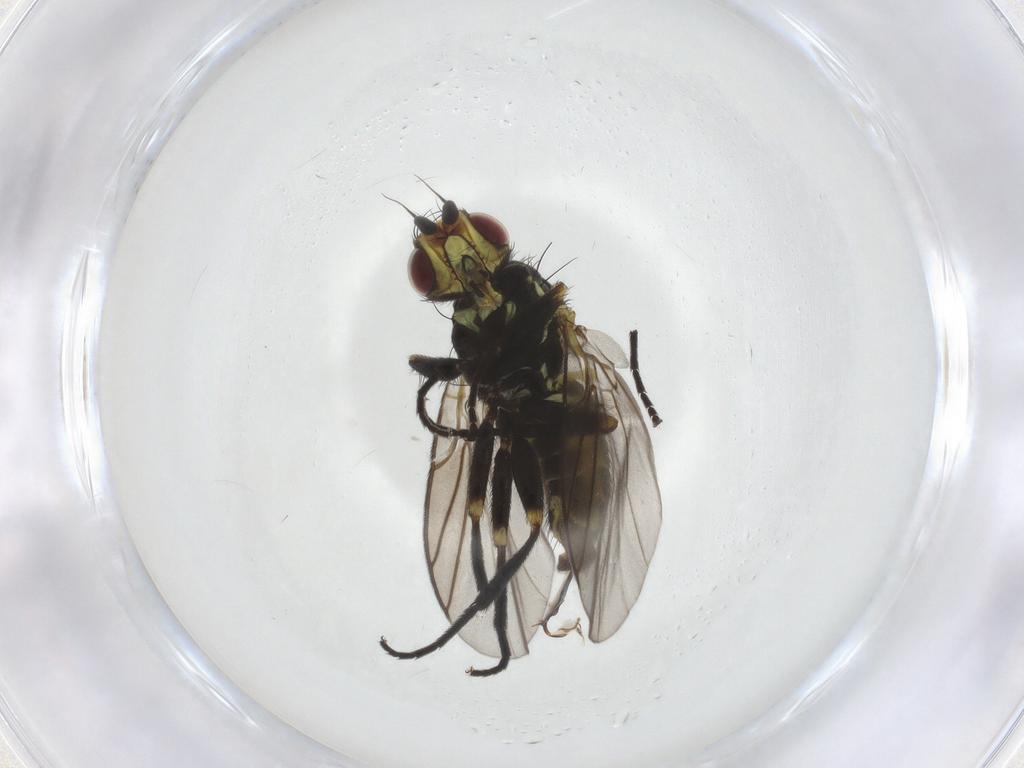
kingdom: Animalia
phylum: Arthropoda
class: Insecta
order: Diptera
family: Agromyzidae
